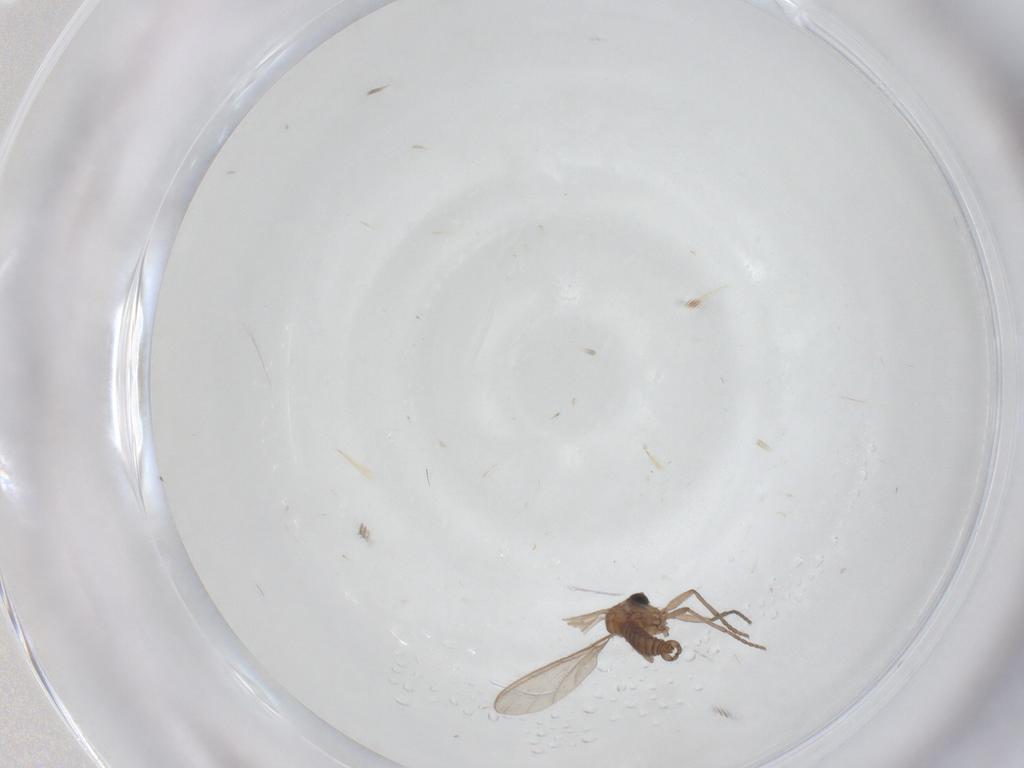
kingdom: Animalia
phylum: Arthropoda
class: Insecta
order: Diptera
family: Sciaridae
